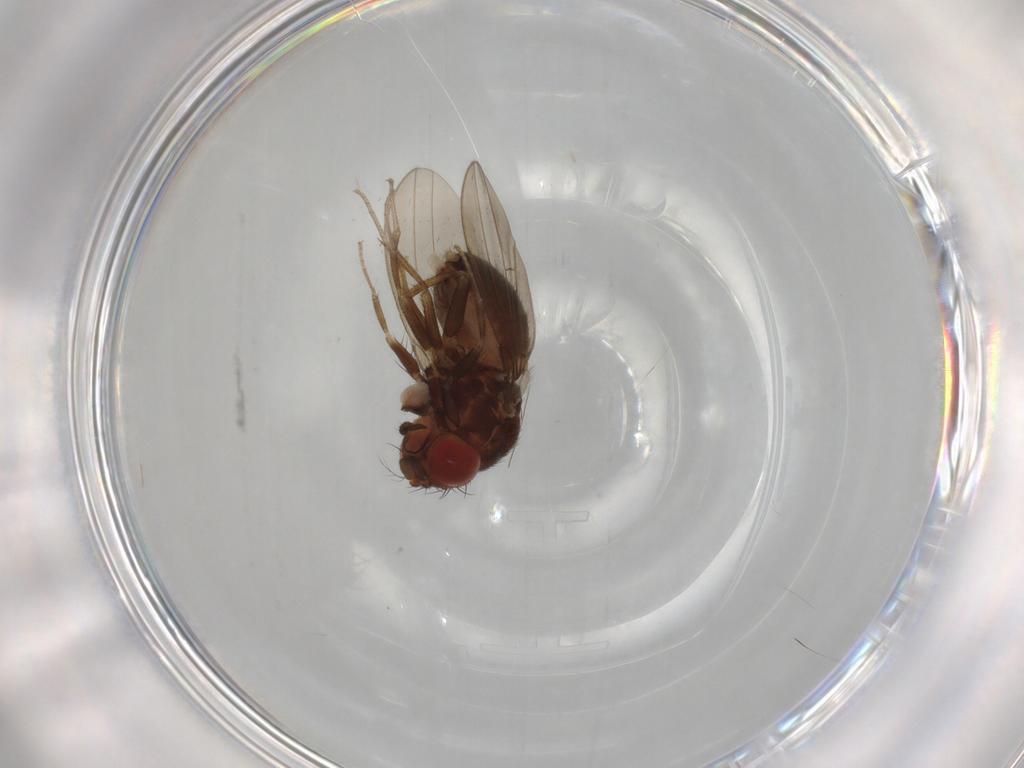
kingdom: Animalia
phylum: Arthropoda
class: Insecta
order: Diptera
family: Drosophilidae
